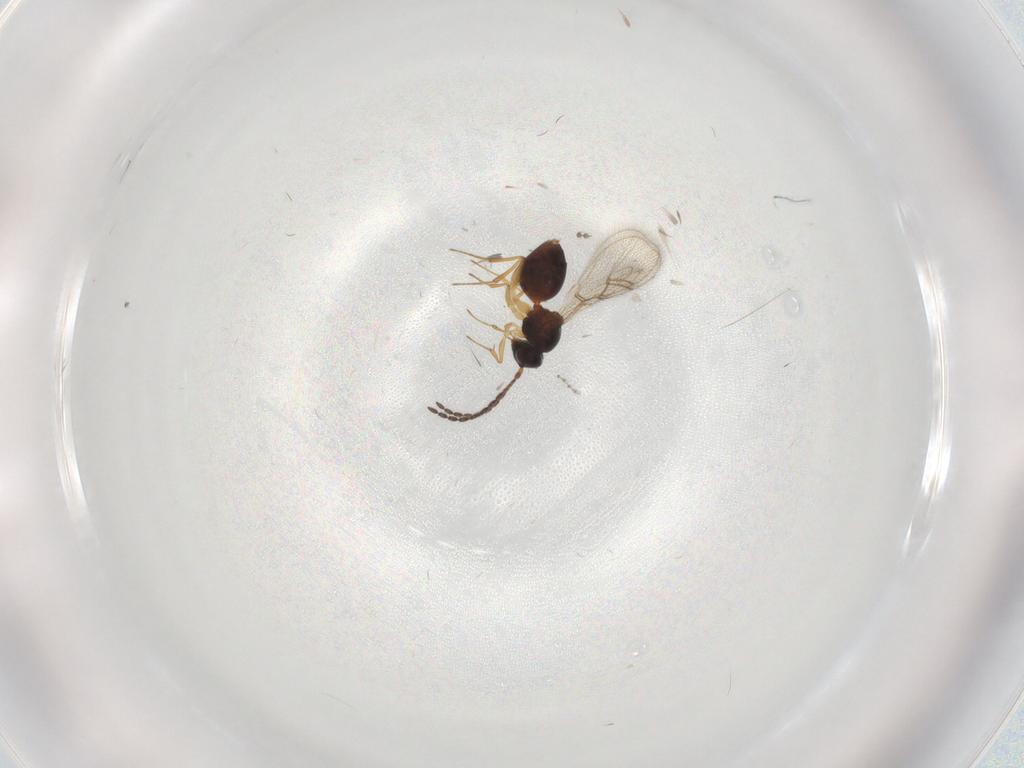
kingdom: Animalia
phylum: Arthropoda
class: Insecta
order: Hymenoptera
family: Figitidae
